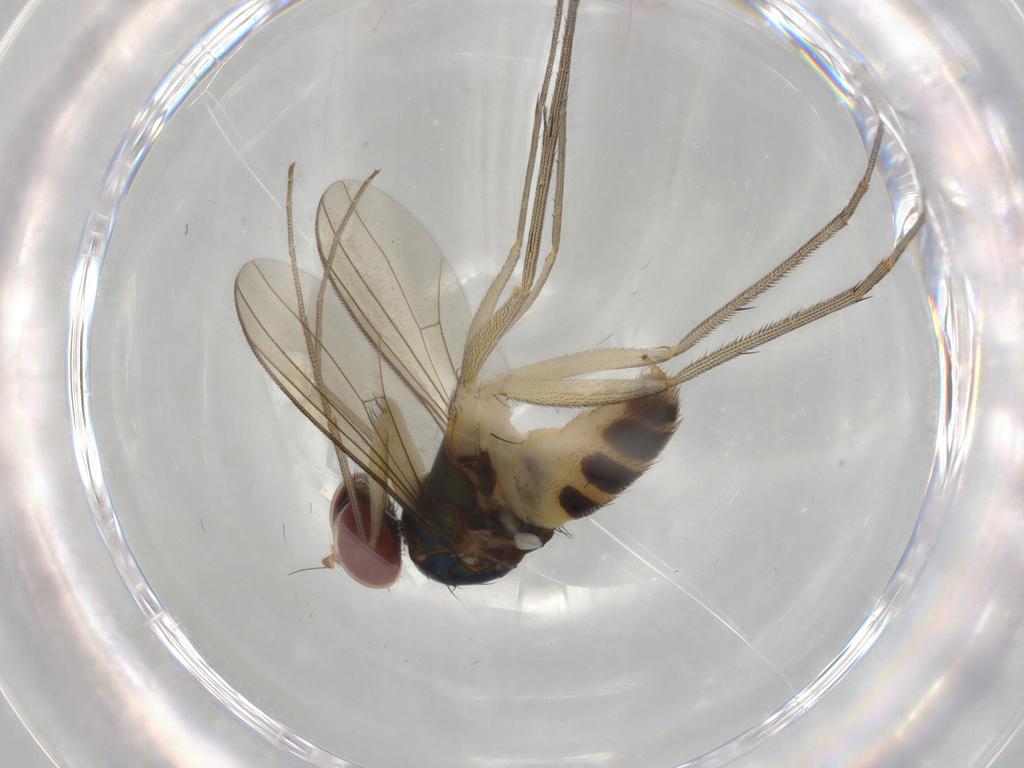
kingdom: Animalia
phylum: Arthropoda
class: Insecta
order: Diptera
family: Dolichopodidae
